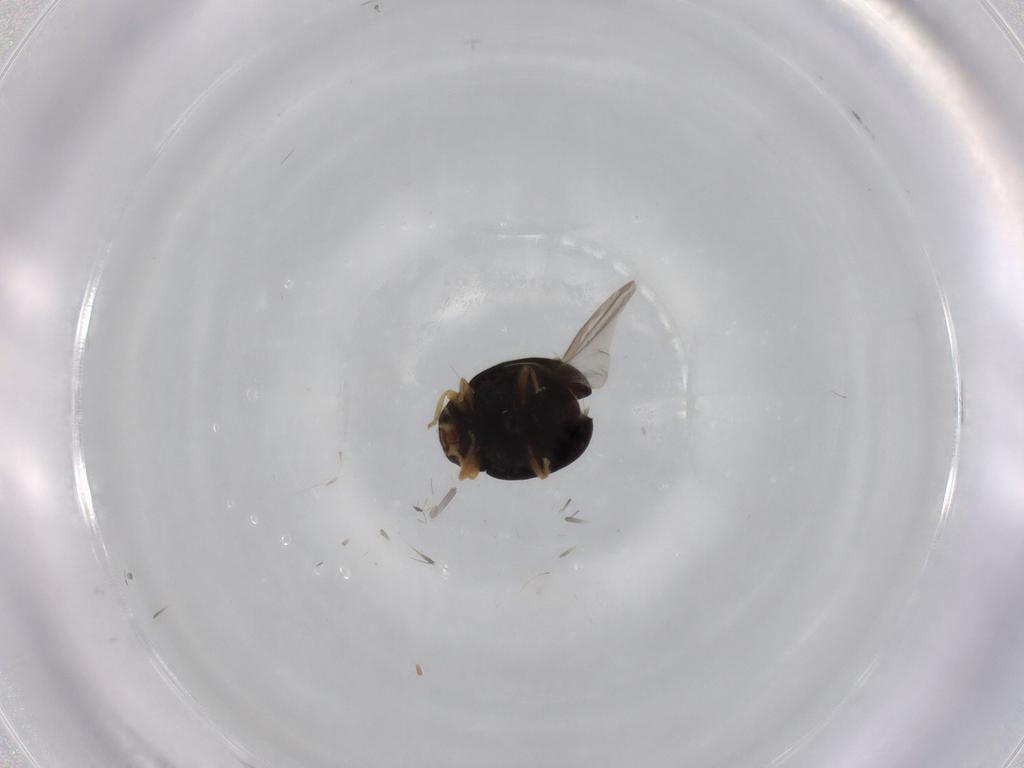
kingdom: Animalia
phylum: Arthropoda
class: Insecta
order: Coleoptera
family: Coccinellidae
